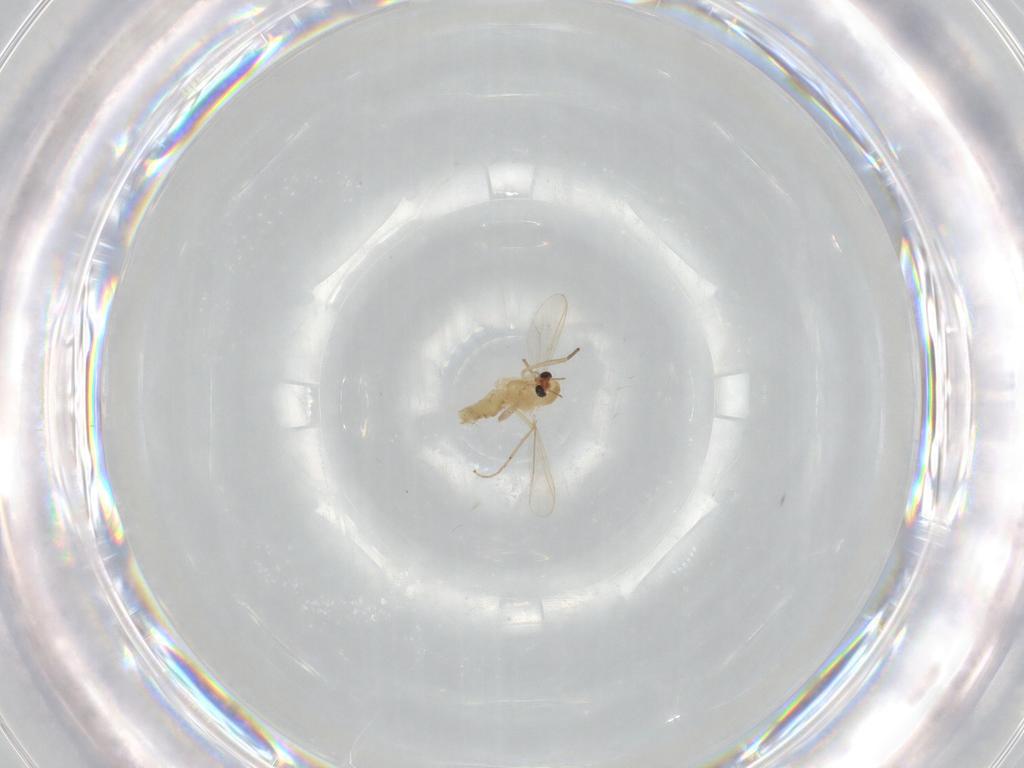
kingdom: Animalia
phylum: Arthropoda
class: Insecta
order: Diptera
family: Chironomidae
